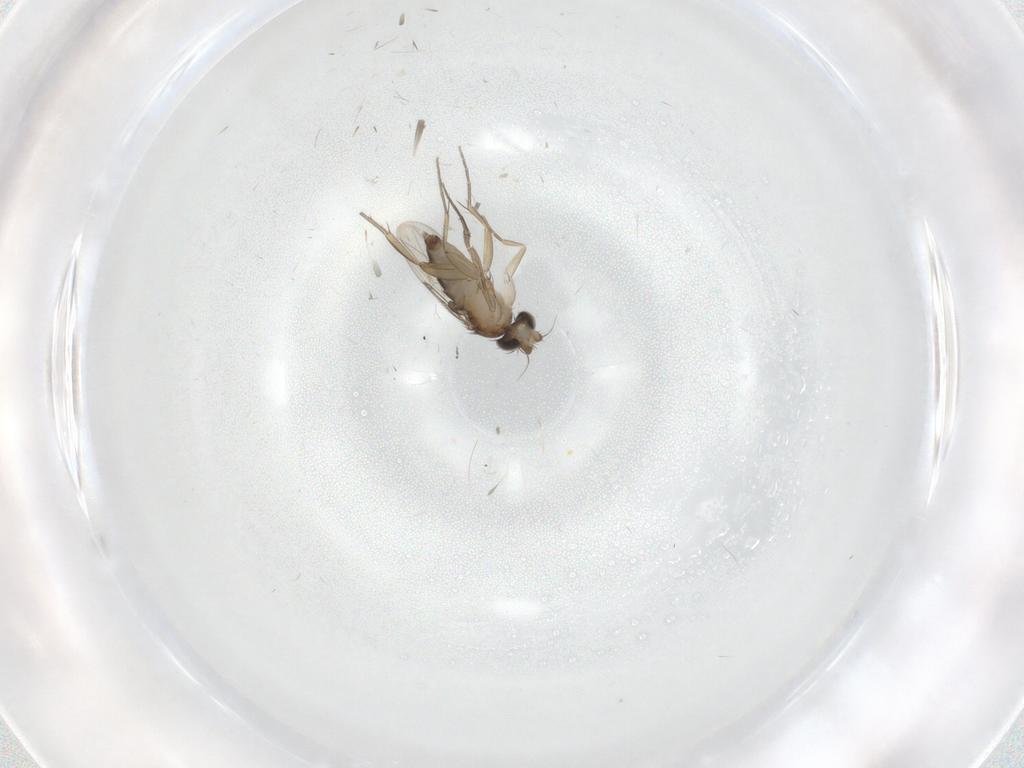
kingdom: Animalia
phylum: Arthropoda
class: Insecta
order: Diptera
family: Phoridae
